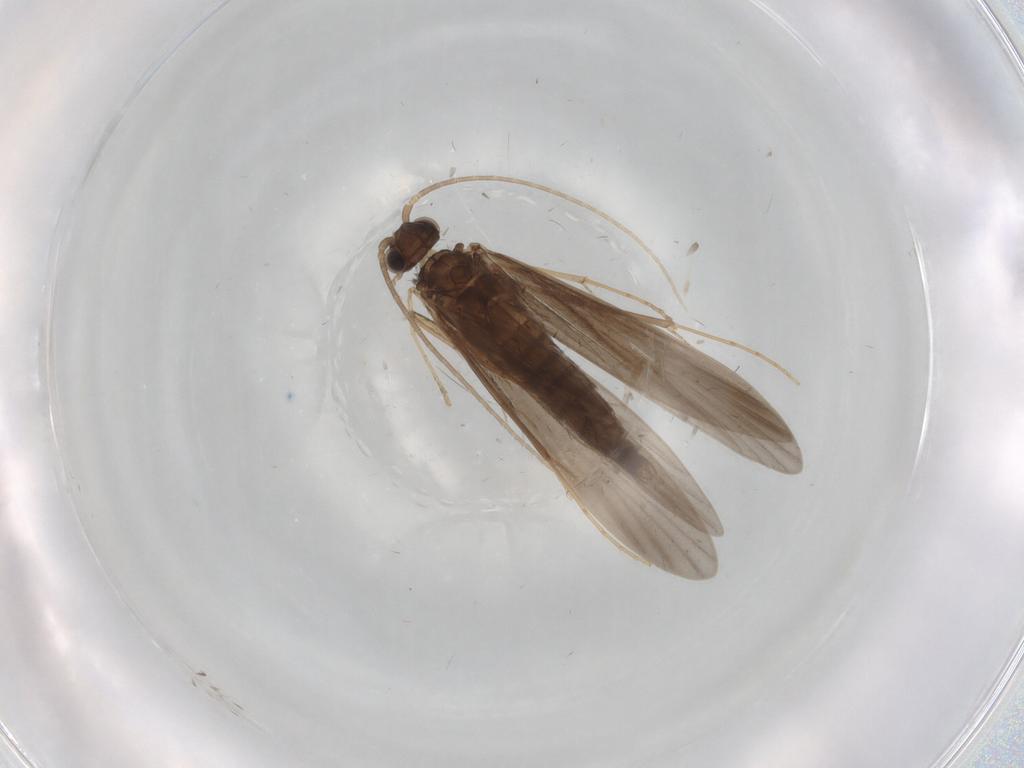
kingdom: Animalia
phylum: Arthropoda
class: Insecta
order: Trichoptera
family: Xiphocentronidae
